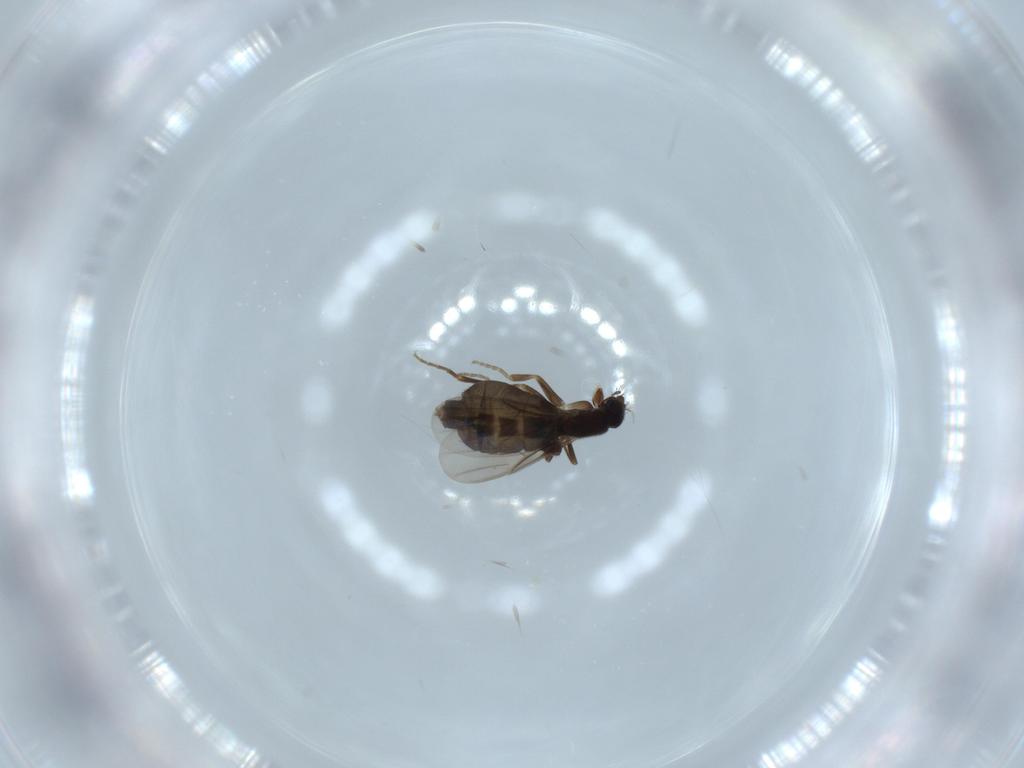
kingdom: Animalia
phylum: Arthropoda
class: Insecta
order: Diptera
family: Phoridae
